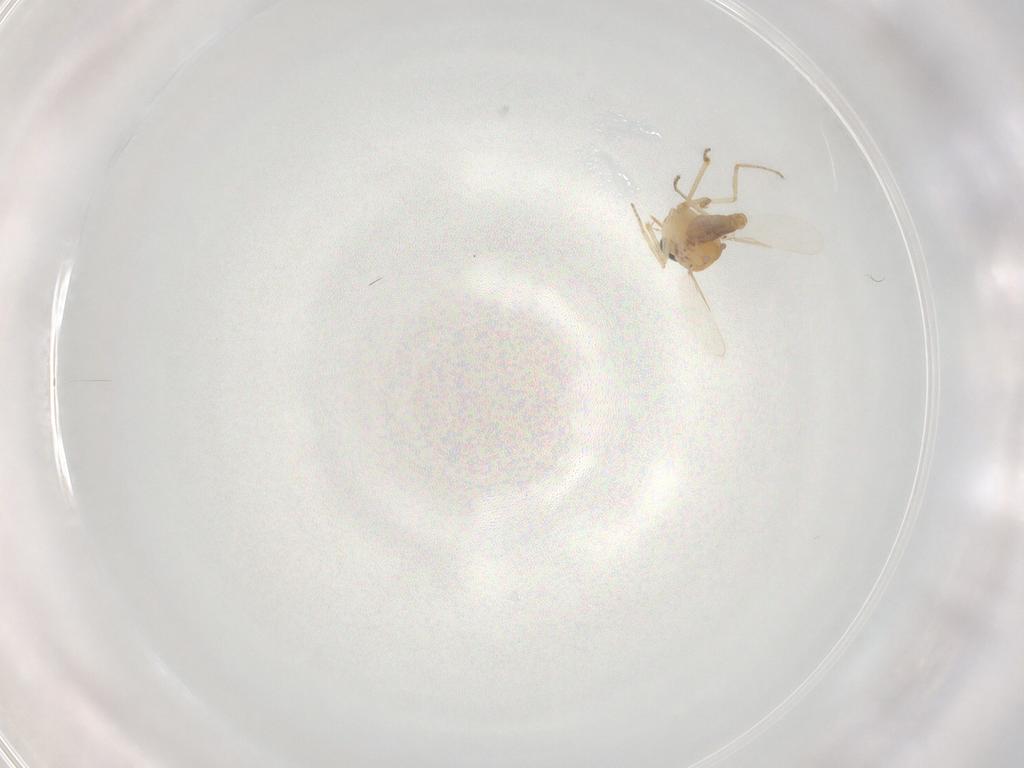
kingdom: Animalia
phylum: Arthropoda
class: Insecta
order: Diptera
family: Ceratopogonidae
